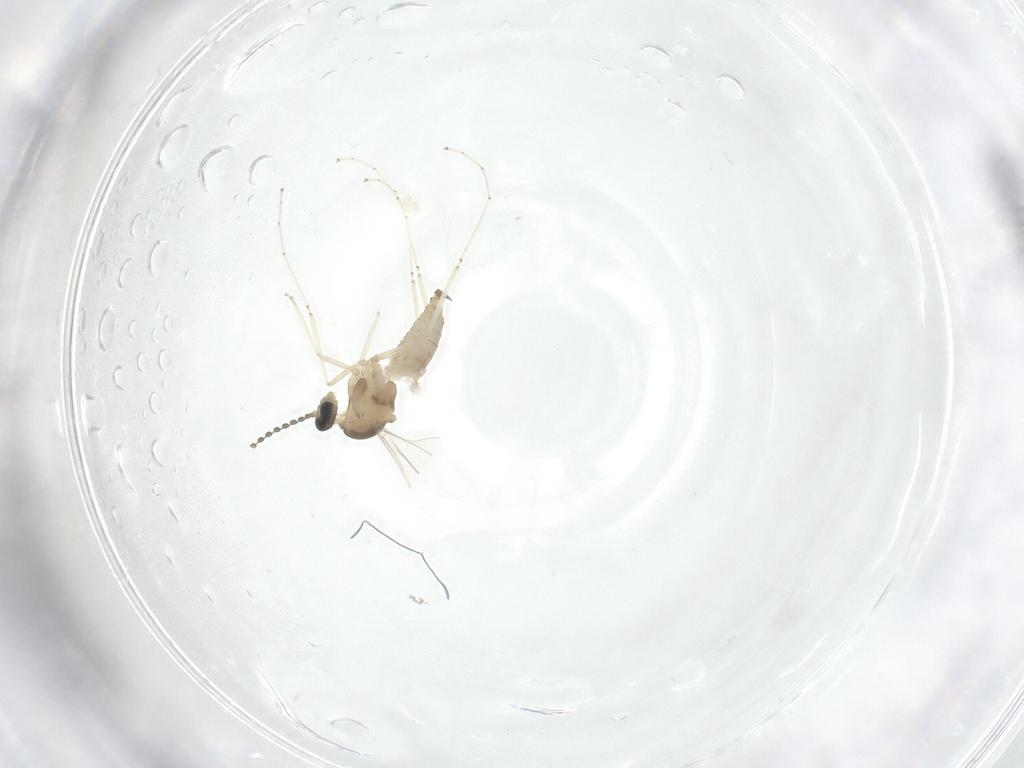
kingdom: Animalia
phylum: Arthropoda
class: Insecta
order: Diptera
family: Cecidomyiidae
